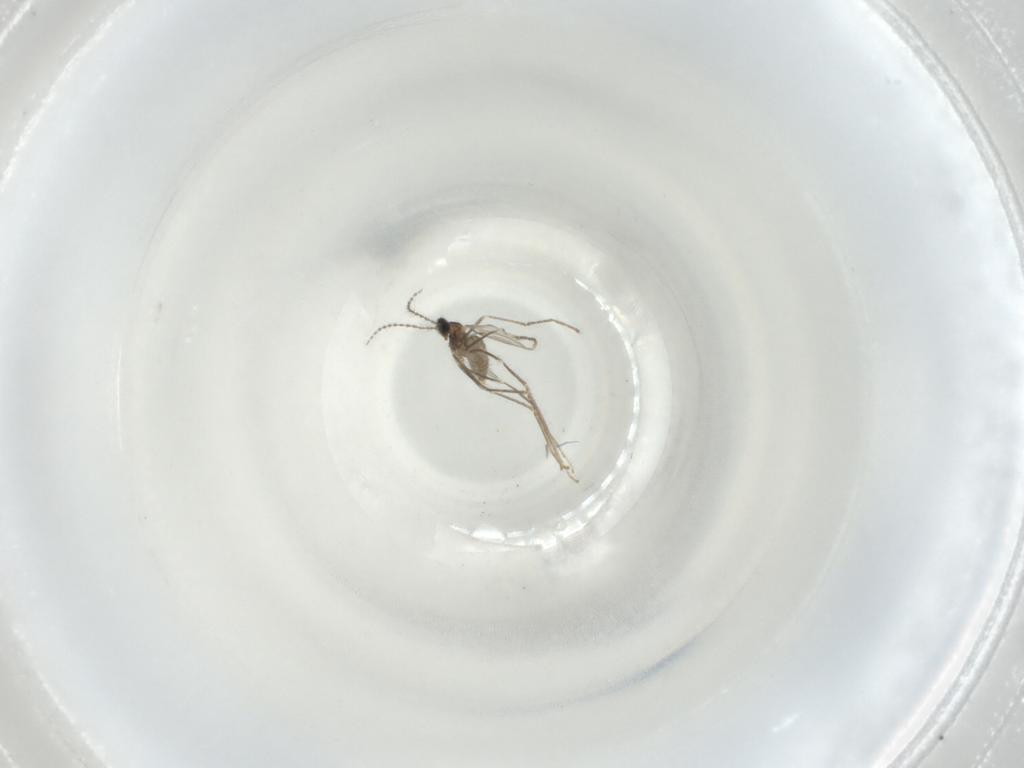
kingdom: Animalia
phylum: Arthropoda
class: Insecta
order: Diptera
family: Cecidomyiidae
